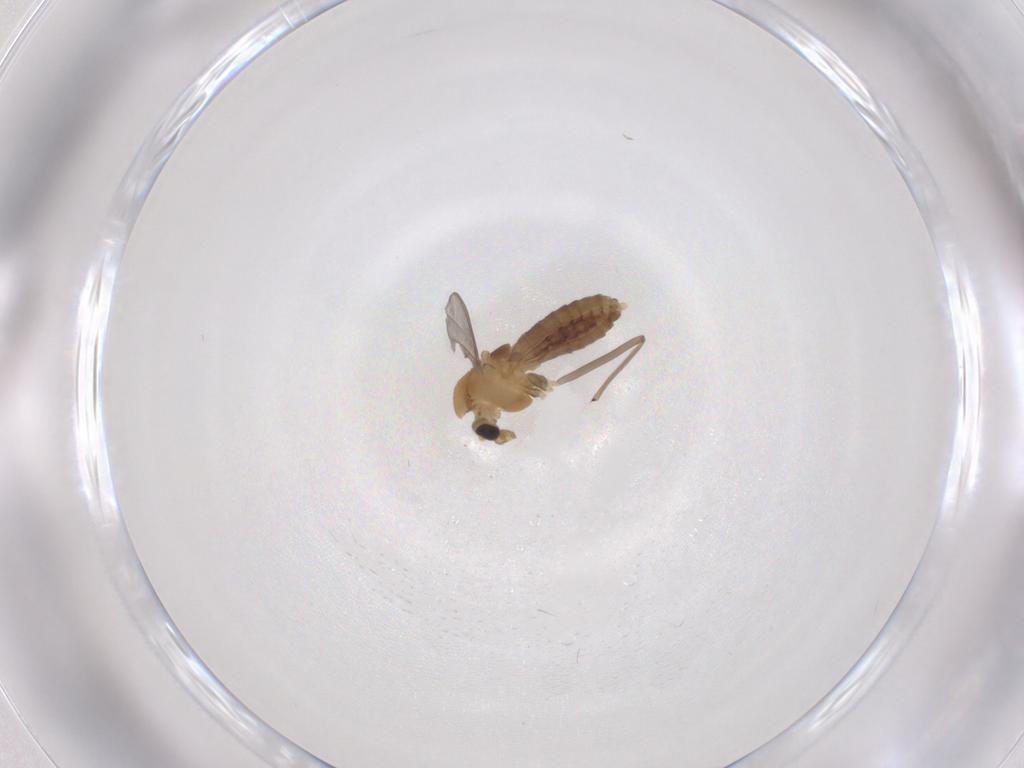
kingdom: Animalia
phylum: Arthropoda
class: Insecta
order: Diptera
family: Chironomidae
